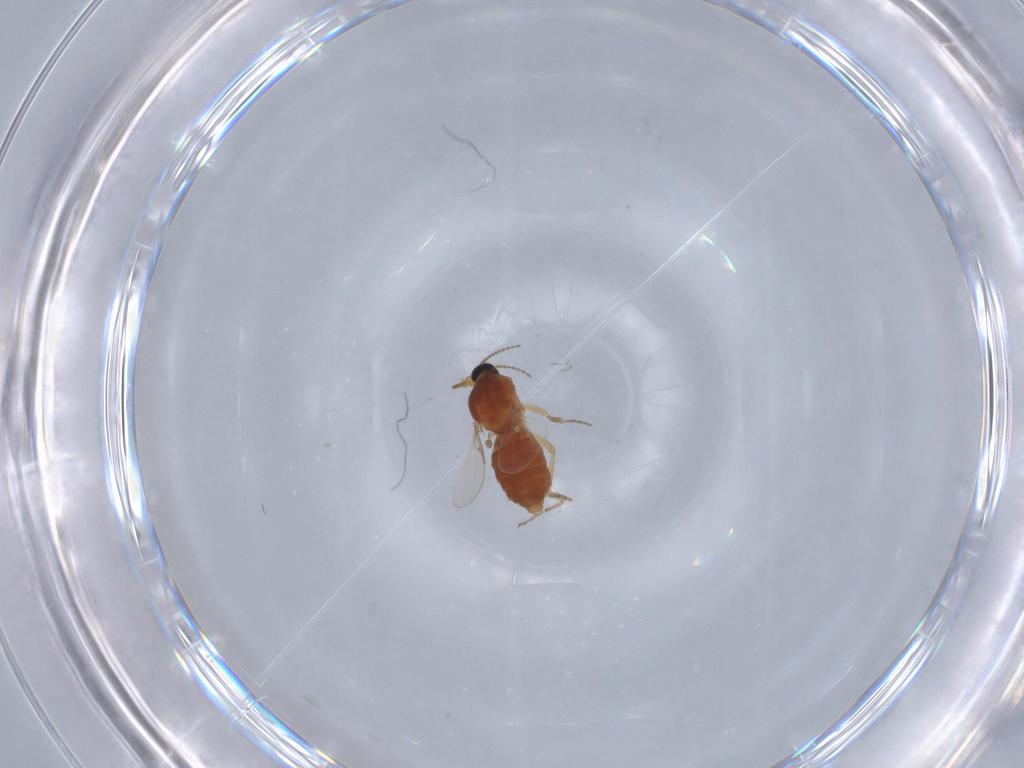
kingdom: Animalia
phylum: Arthropoda
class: Insecta
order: Diptera
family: Ceratopogonidae
